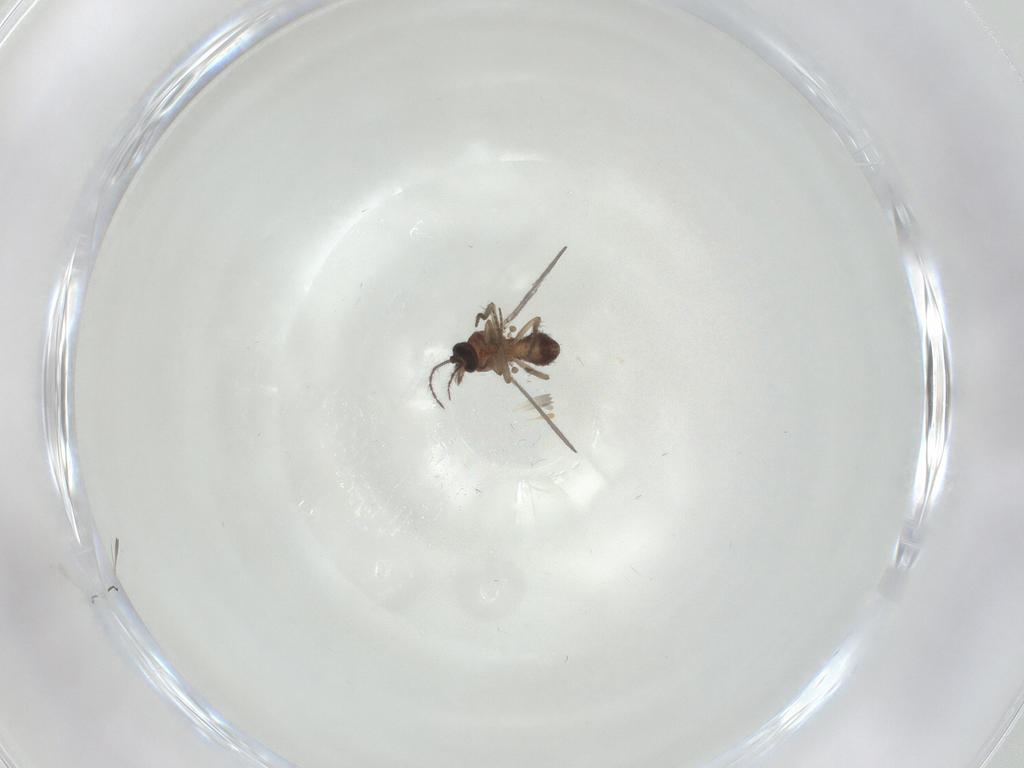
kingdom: Animalia
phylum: Arthropoda
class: Insecta
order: Diptera
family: Ceratopogonidae
